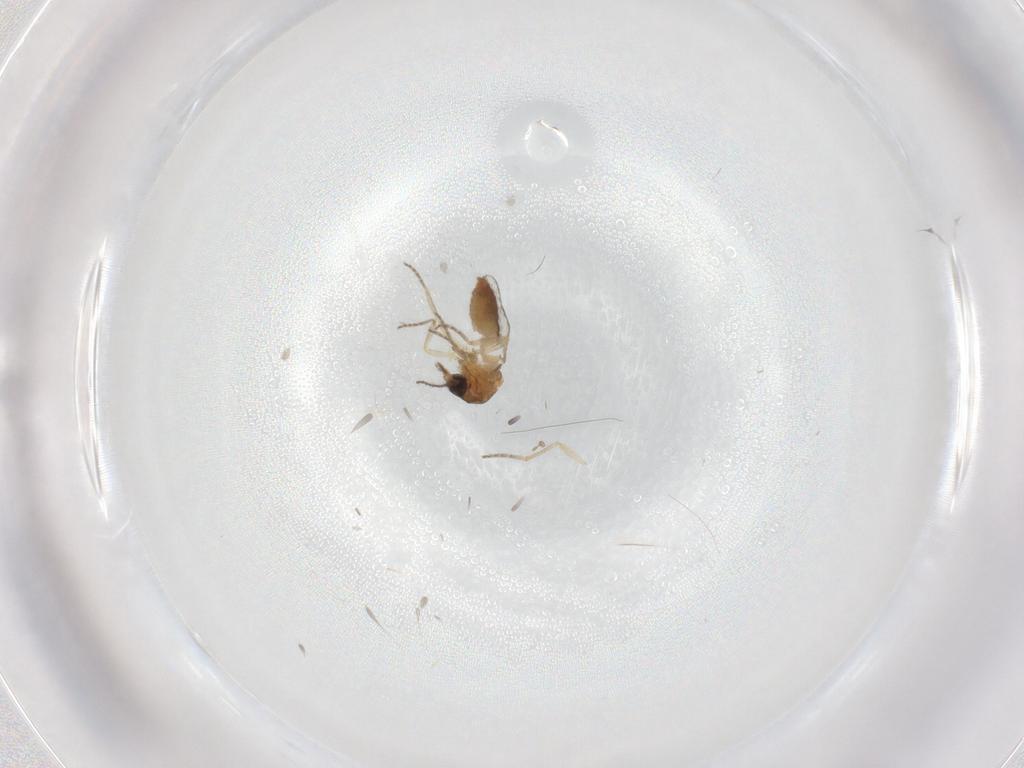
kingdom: Animalia
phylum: Arthropoda
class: Insecta
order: Diptera
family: Ceratopogonidae
